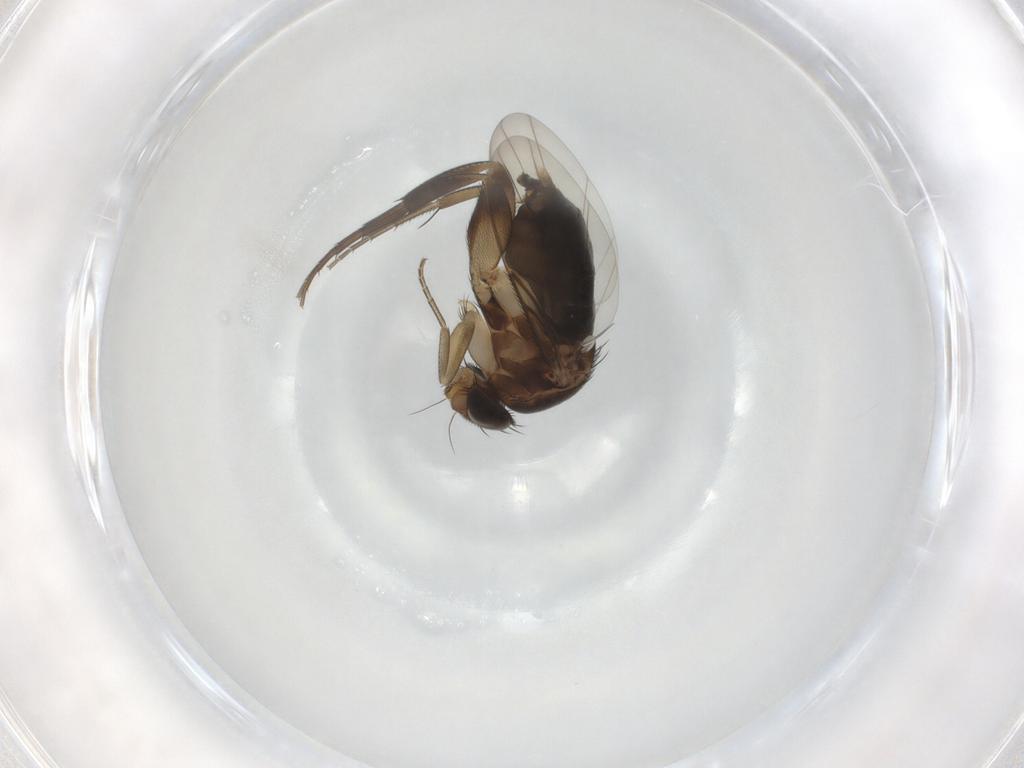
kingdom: Animalia
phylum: Arthropoda
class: Insecta
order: Diptera
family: Phoridae
